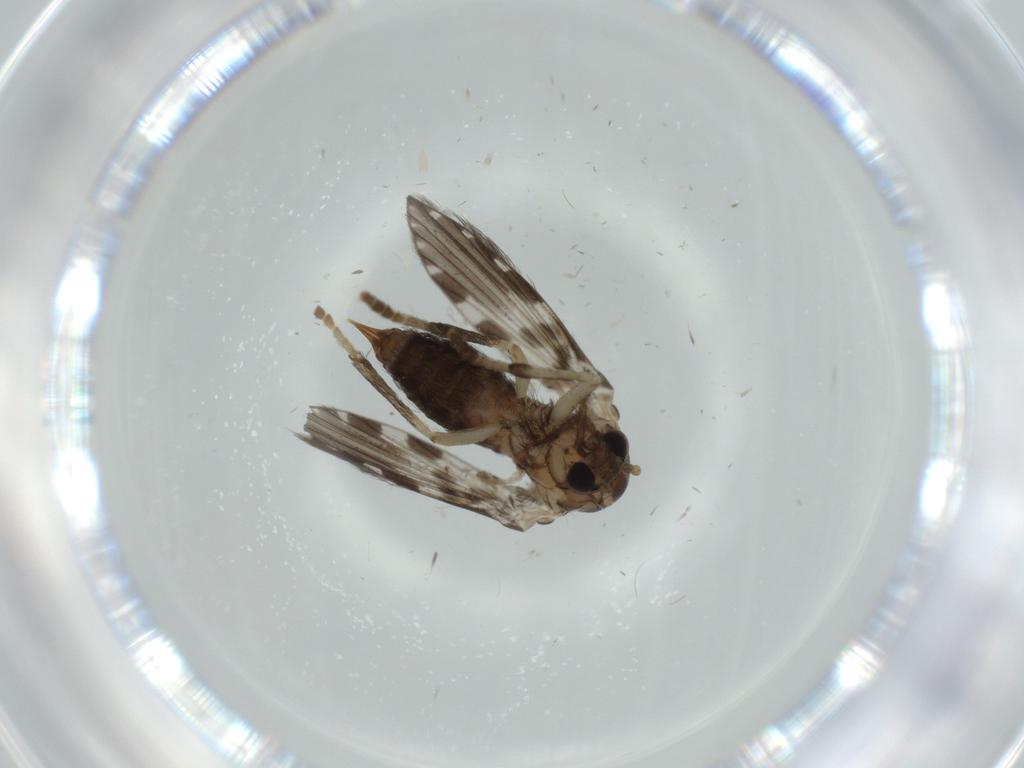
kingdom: Animalia
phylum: Arthropoda
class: Insecta
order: Diptera
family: Psychodidae
